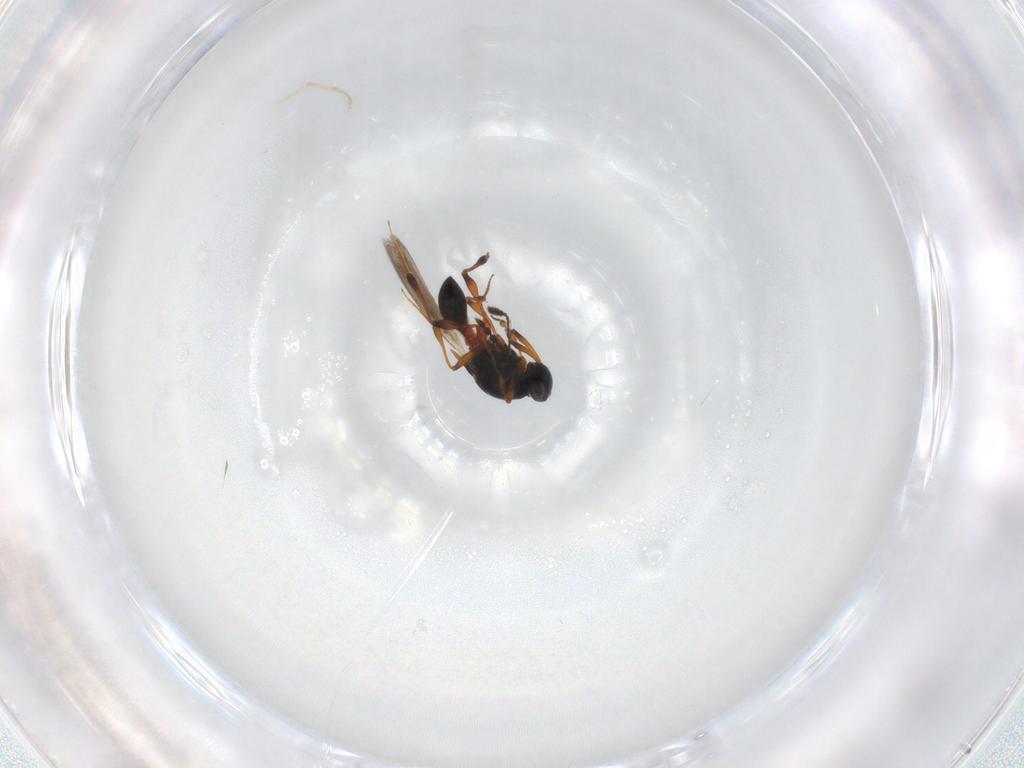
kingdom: Animalia
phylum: Arthropoda
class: Insecta
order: Hymenoptera
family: Platygastridae
